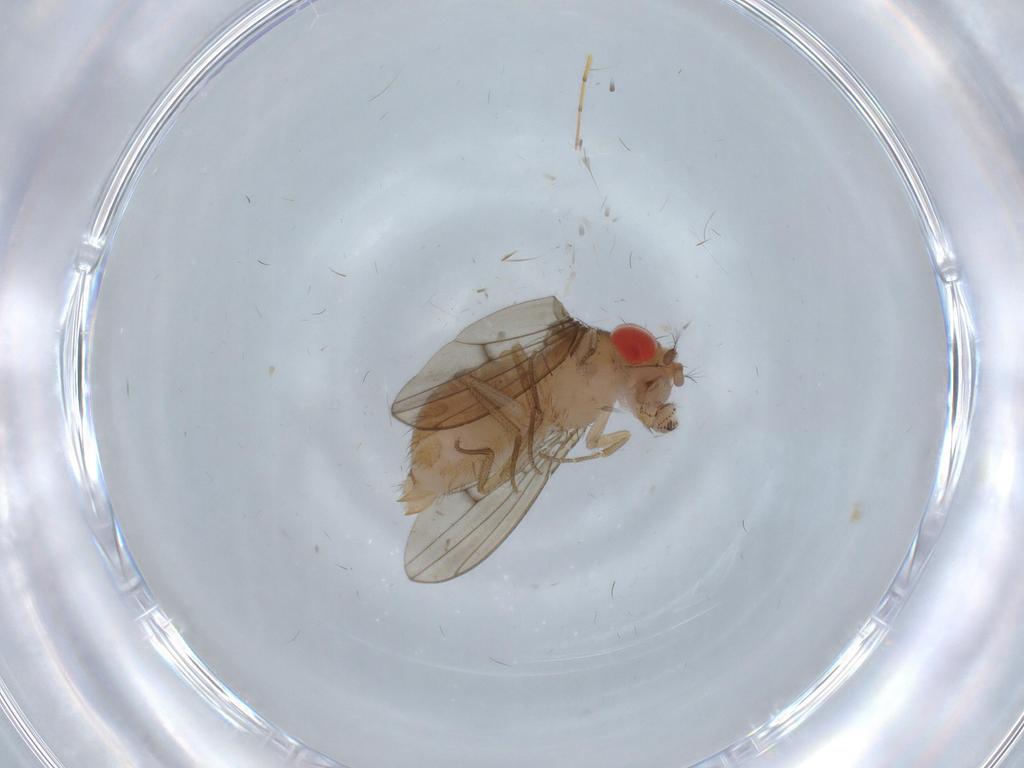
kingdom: Animalia
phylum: Arthropoda
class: Insecta
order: Diptera
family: Drosophilidae
